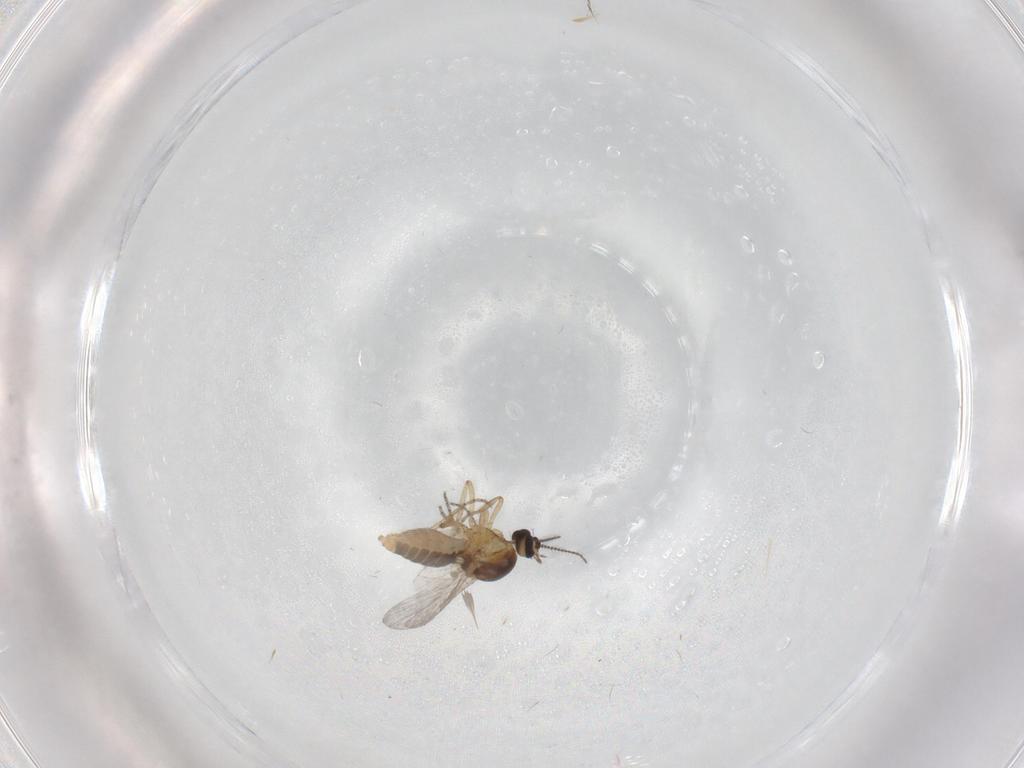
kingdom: Animalia
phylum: Arthropoda
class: Insecta
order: Diptera
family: Ceratopogonidae
